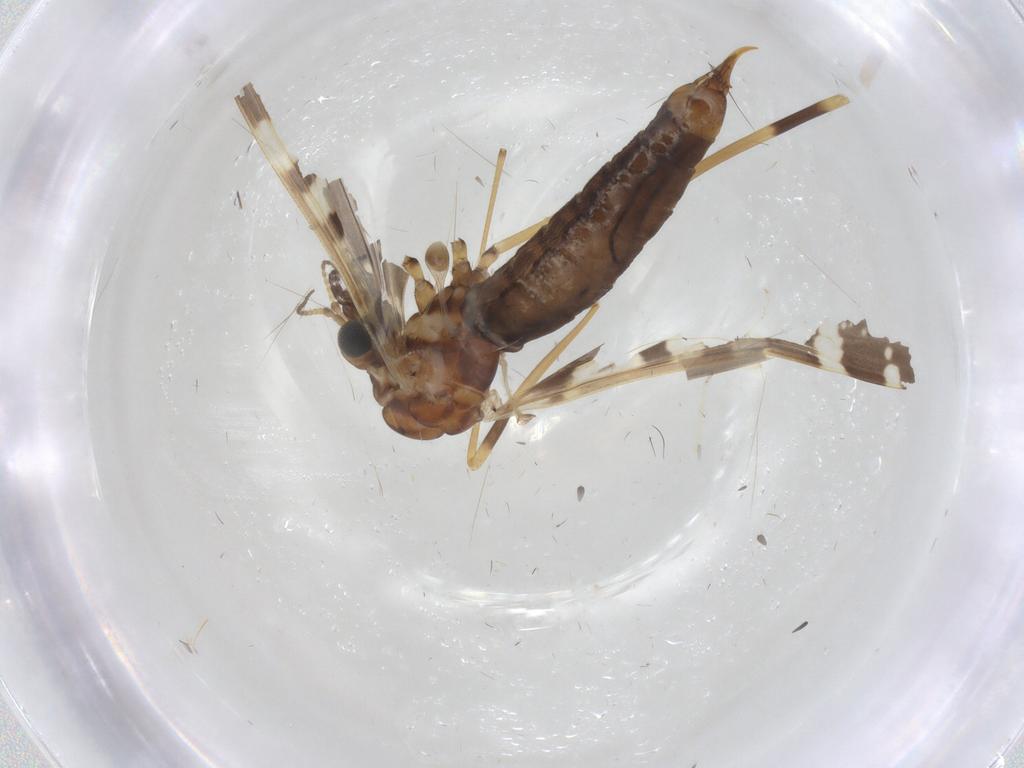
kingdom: Animalia
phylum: Arthropoda
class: Insecta
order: Diptera
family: Limoniidae
